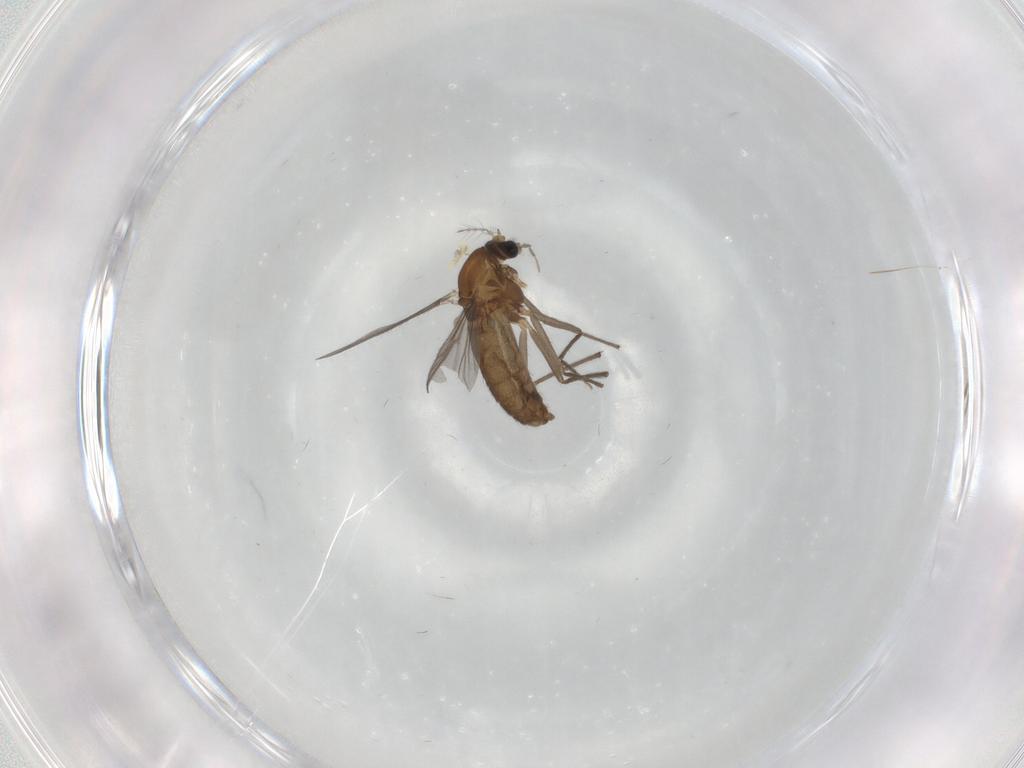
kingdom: Animalia
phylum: Arthropoda
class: Insecta
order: Diptera
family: Chironomidae
